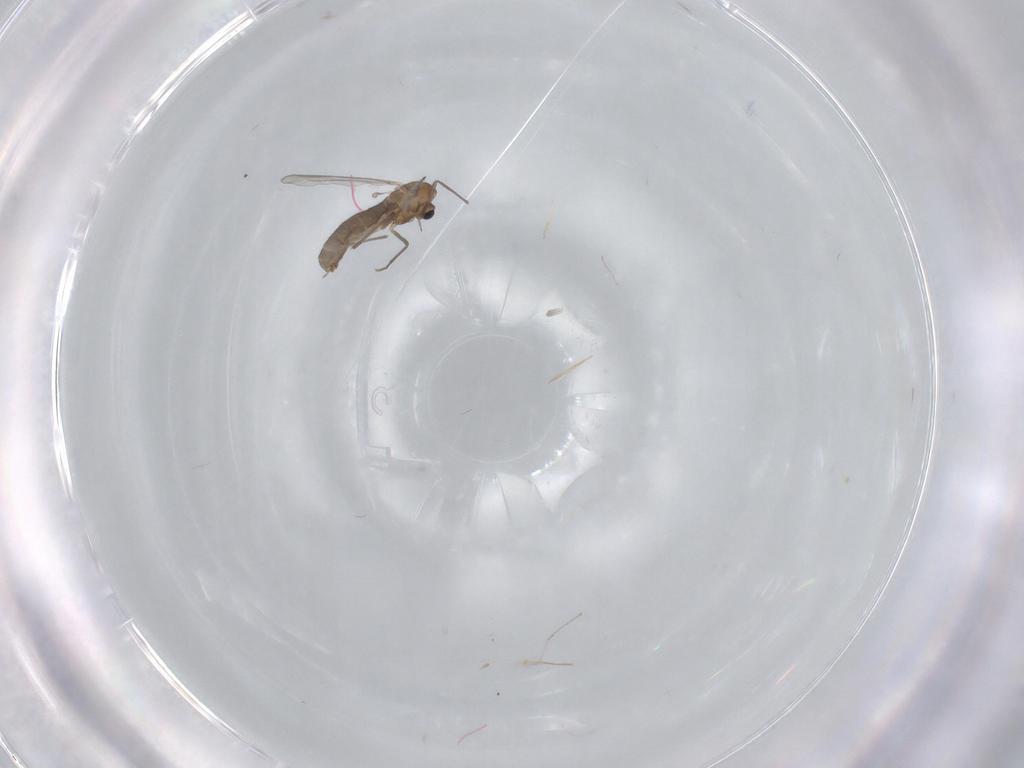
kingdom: Animalia
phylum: Arthropoda
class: Insecta
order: Diptera
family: Chironomidae
